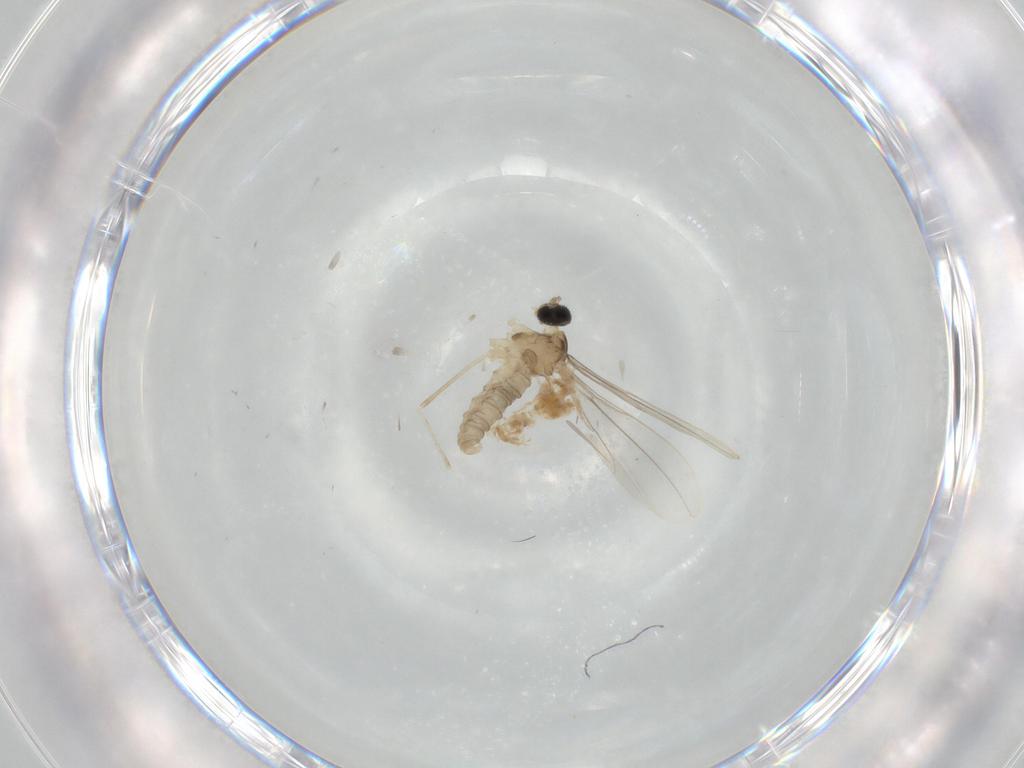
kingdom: Animalia
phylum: Arthropoda
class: Insecta
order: Diptera
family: Cecidomyiidae
